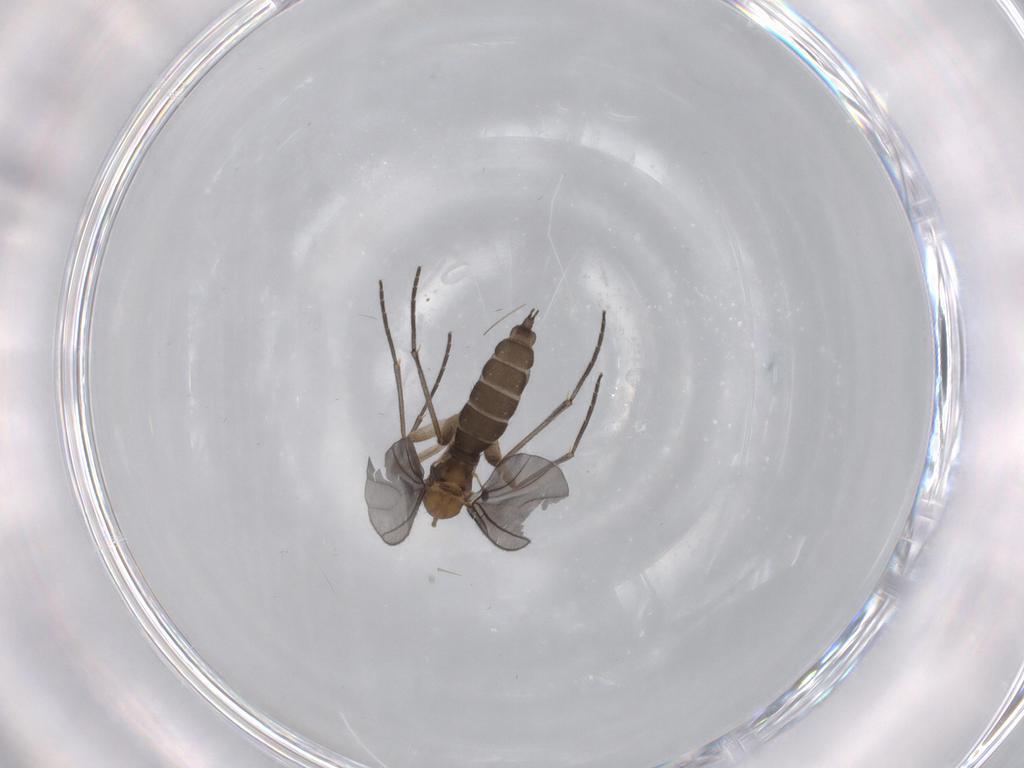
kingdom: Animalia
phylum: Arthropoda
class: Insecta
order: Diptera
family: Sciaridae
